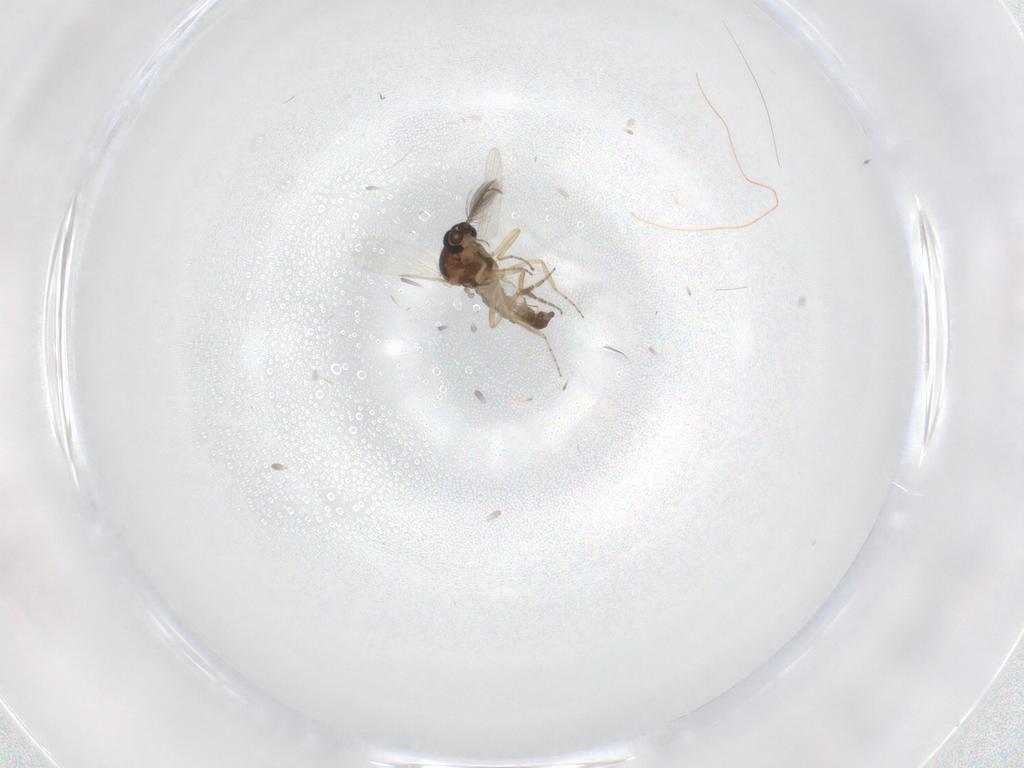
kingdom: Animalia
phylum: Arthropoda
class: Insecta
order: Diptera
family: Ceratopogonidae
